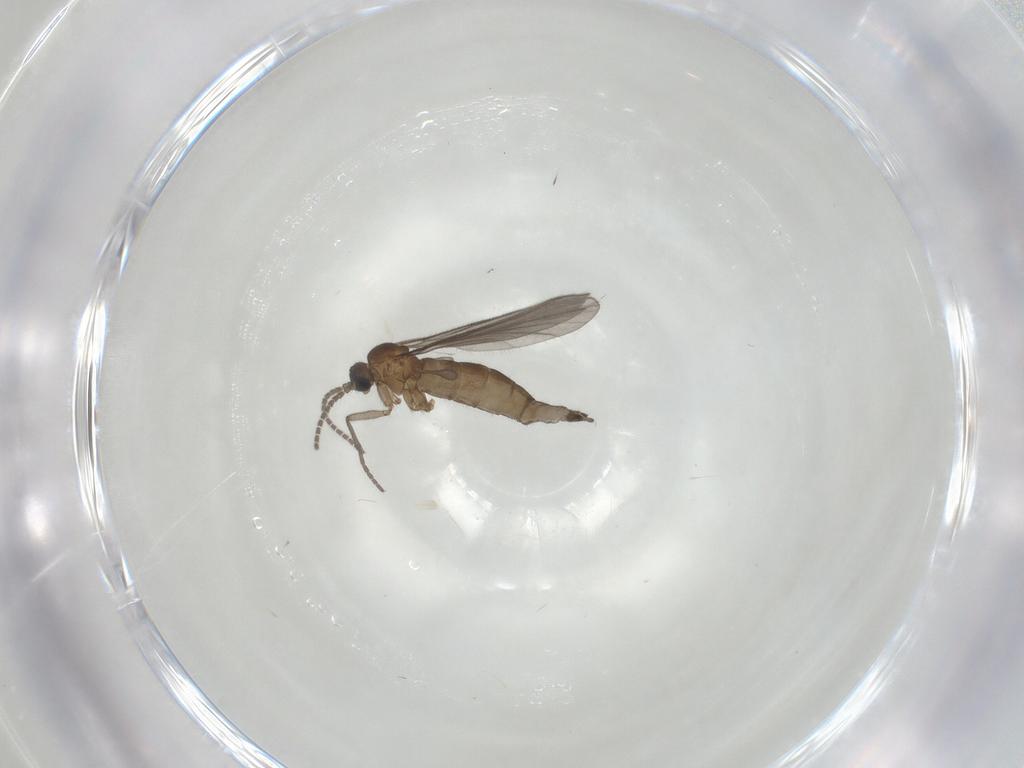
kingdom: Animalia
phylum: Arthropoda
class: Insecta
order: Diptera
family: Sciaridae
